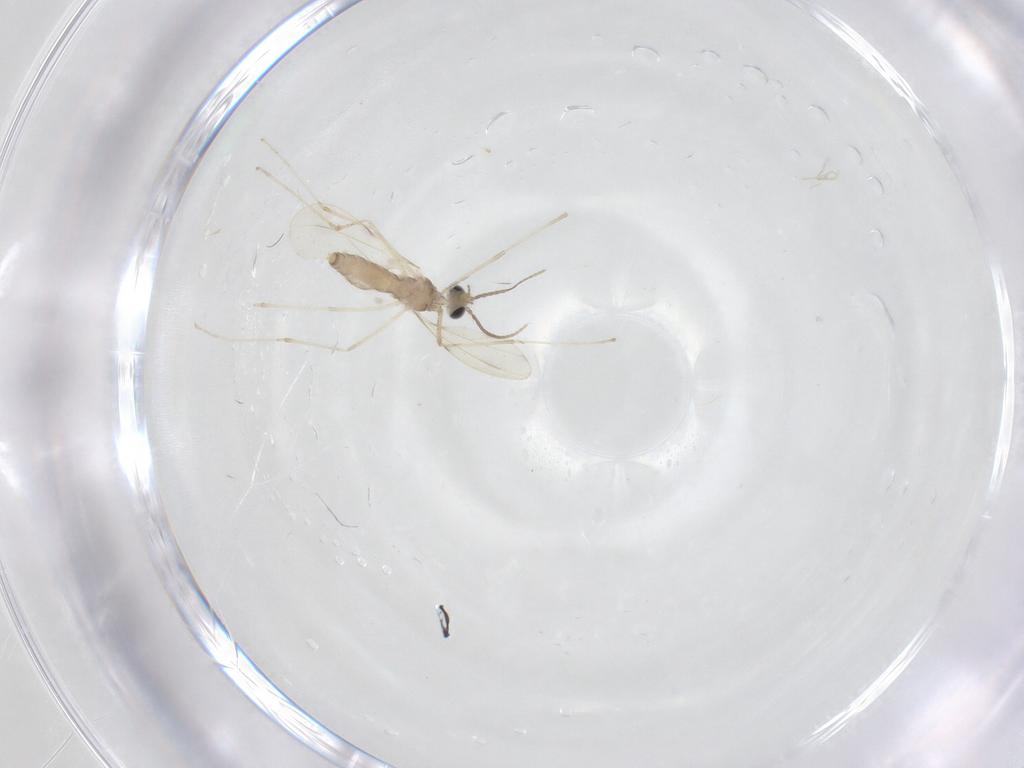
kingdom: Animalia
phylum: Arthropoda
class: Insecta
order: Diptera
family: Dolichopodidae
